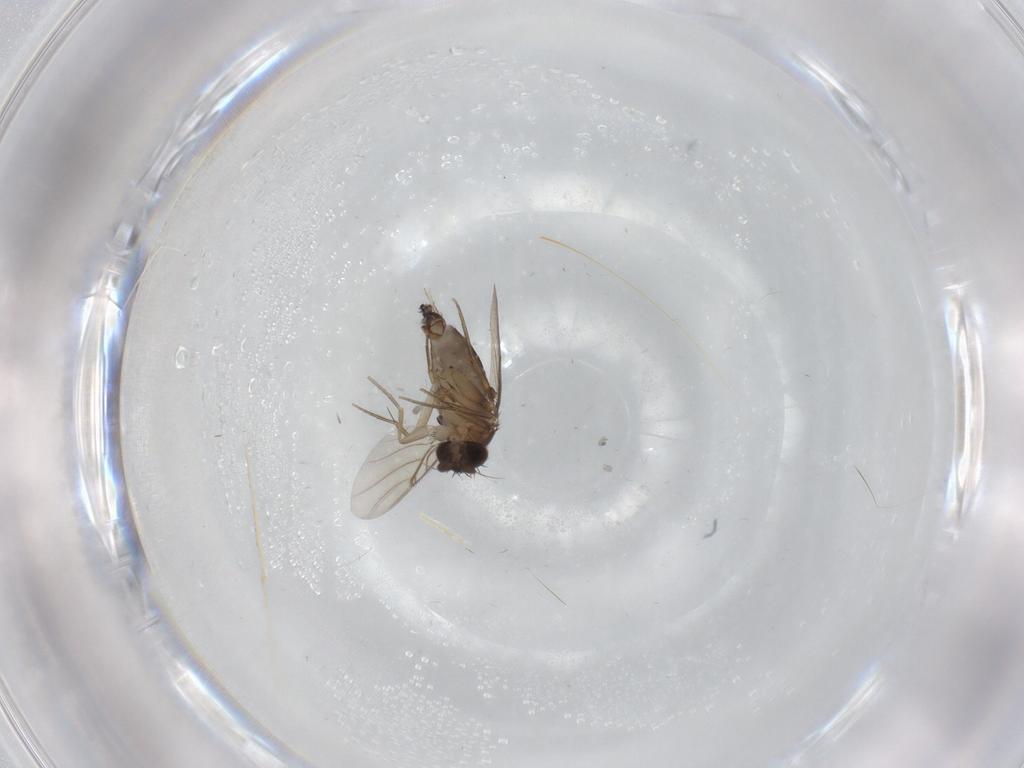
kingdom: Animalia
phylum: Arthropoda
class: Insecta
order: Diptera
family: Phoridae
